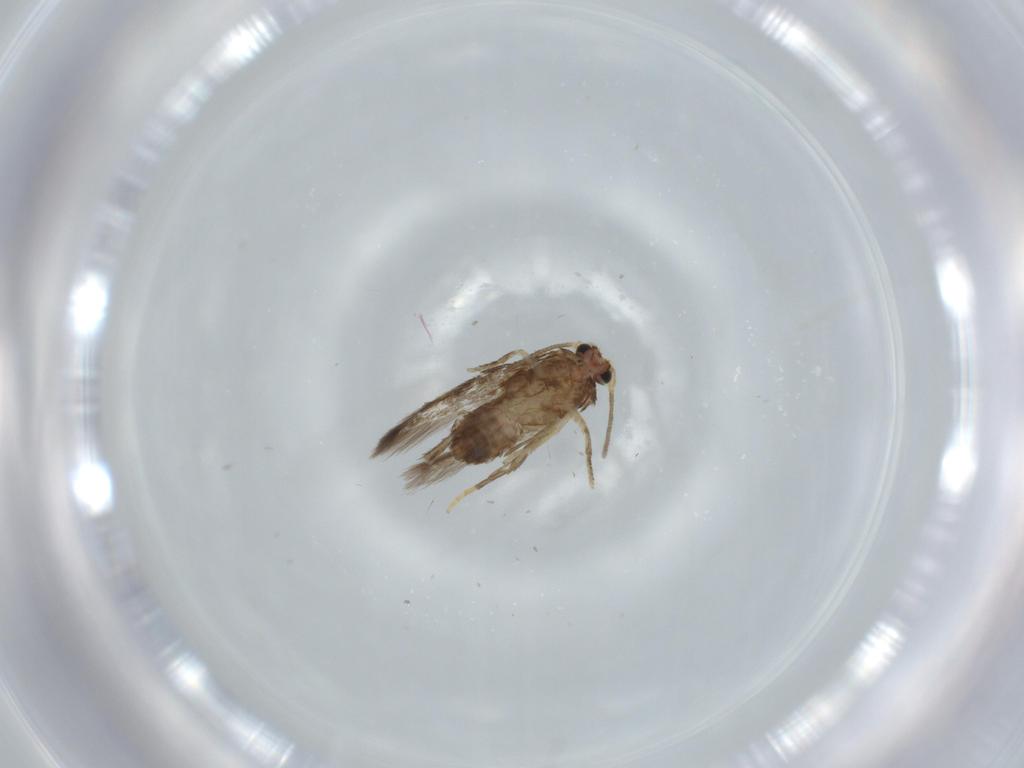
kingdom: Animalia
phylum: Arthropoda
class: Insecta
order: Lepidoptera
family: Nepticulidae
